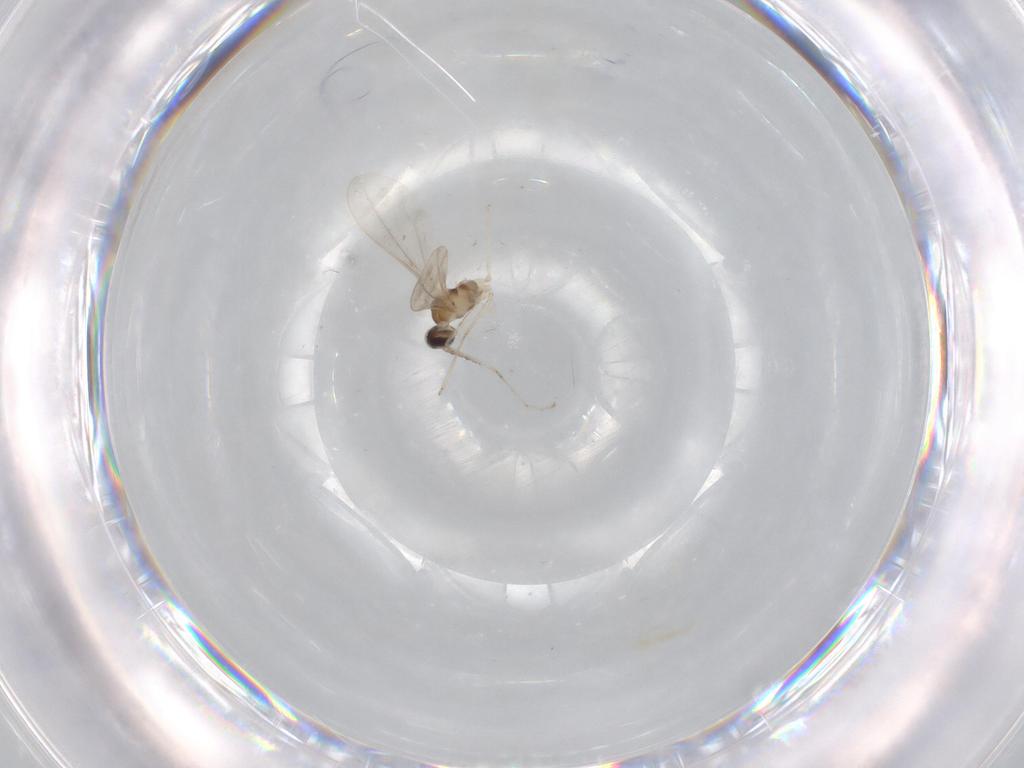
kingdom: Animalia
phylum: Arthropoda
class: Insecta
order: Diptera
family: Cecidomyiidae
